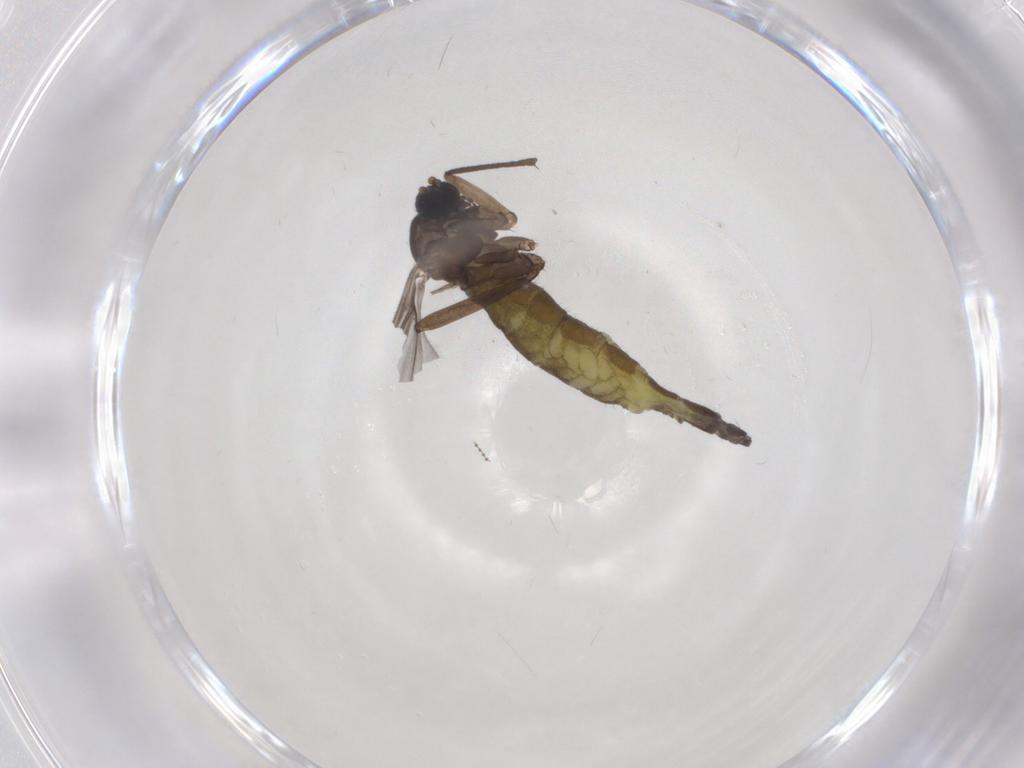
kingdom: Animalia
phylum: Arthropoda
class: Insecta
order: Diptera
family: Sciaridae
